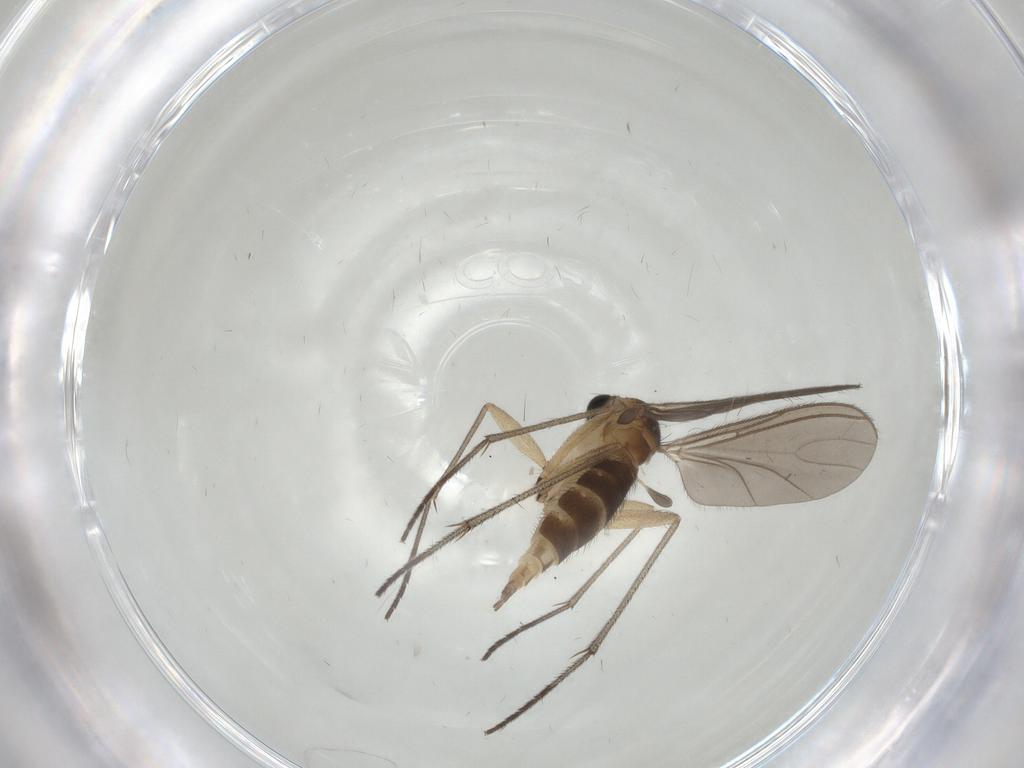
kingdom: Animalia
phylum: Arthropoda
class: Insecta
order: Diptera
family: Sciaridae
